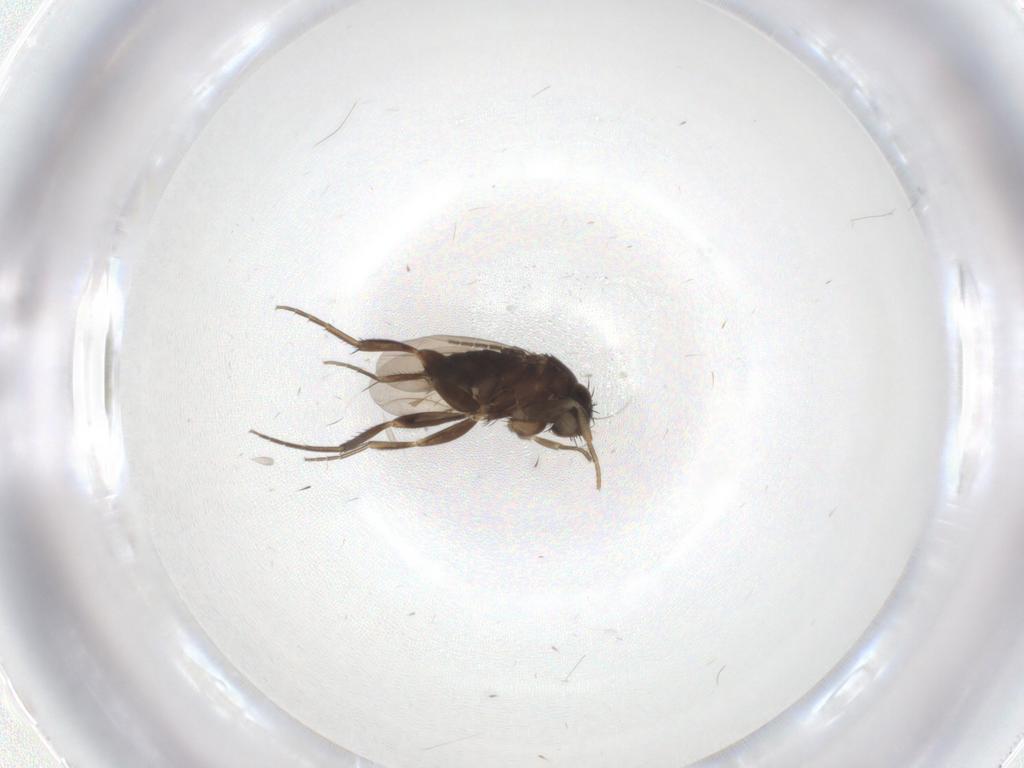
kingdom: Animalia
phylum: Arthropoda
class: Insecta
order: Diptera
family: Phoridae
